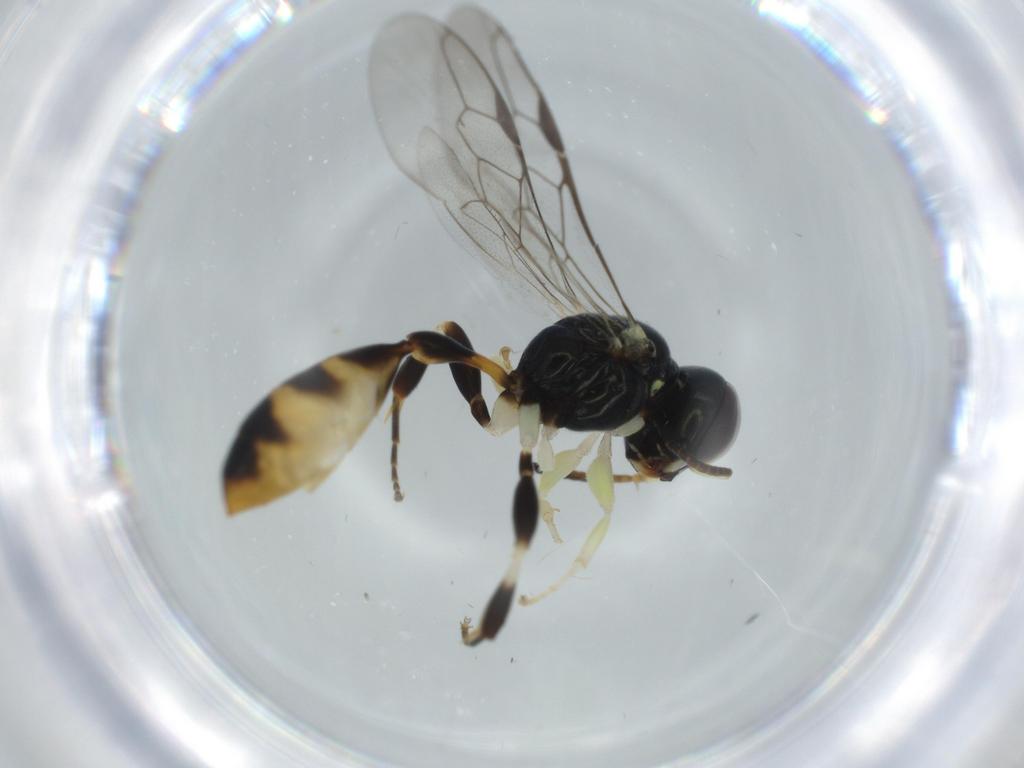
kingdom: Animalia
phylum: Arthropoda
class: Insecta
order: Hymenoptera
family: Crabronidae
